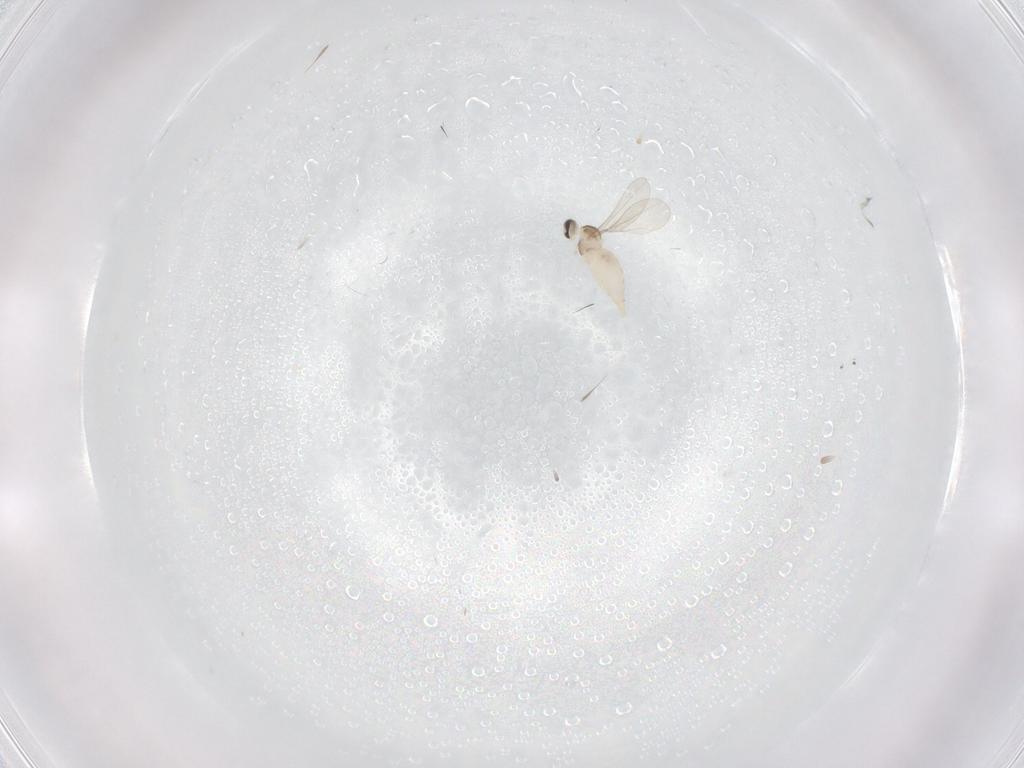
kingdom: Animalia
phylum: Arthropoda
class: Insecta
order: Diptera
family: Cecidomyiidae
